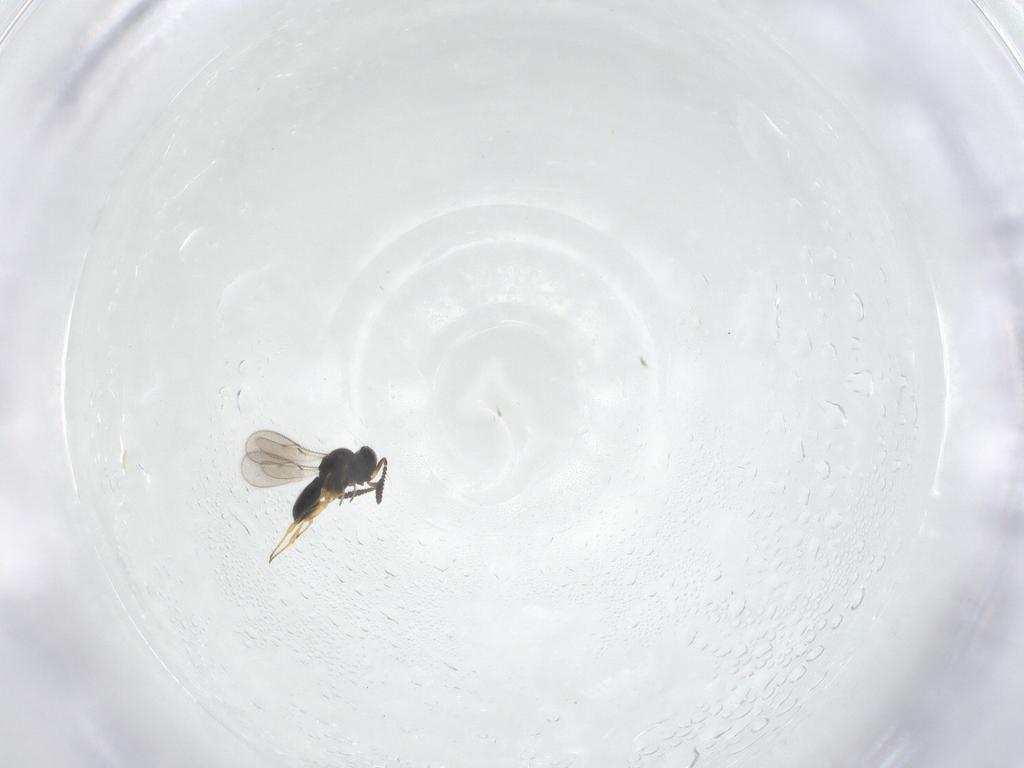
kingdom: Animalia
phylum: Arthropoda
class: Insecta
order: Hymenoptera
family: Scelionidae
